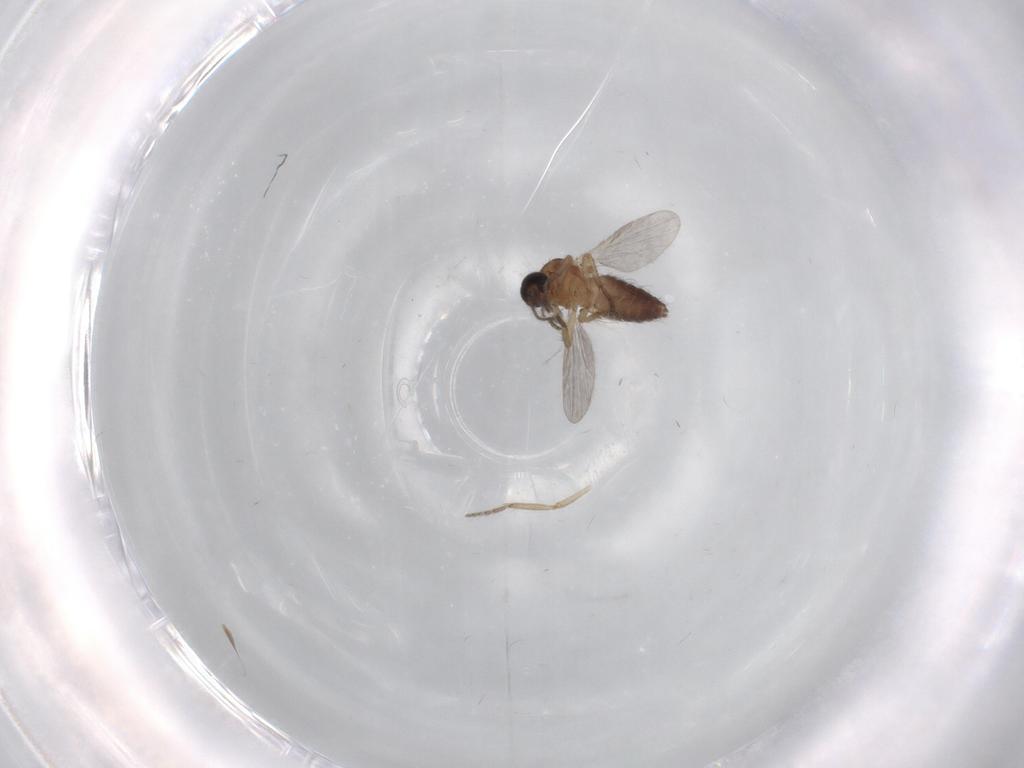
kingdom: Animalia
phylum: Arthropoda
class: Insecta
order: Diptera
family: Ceratopogonidae
